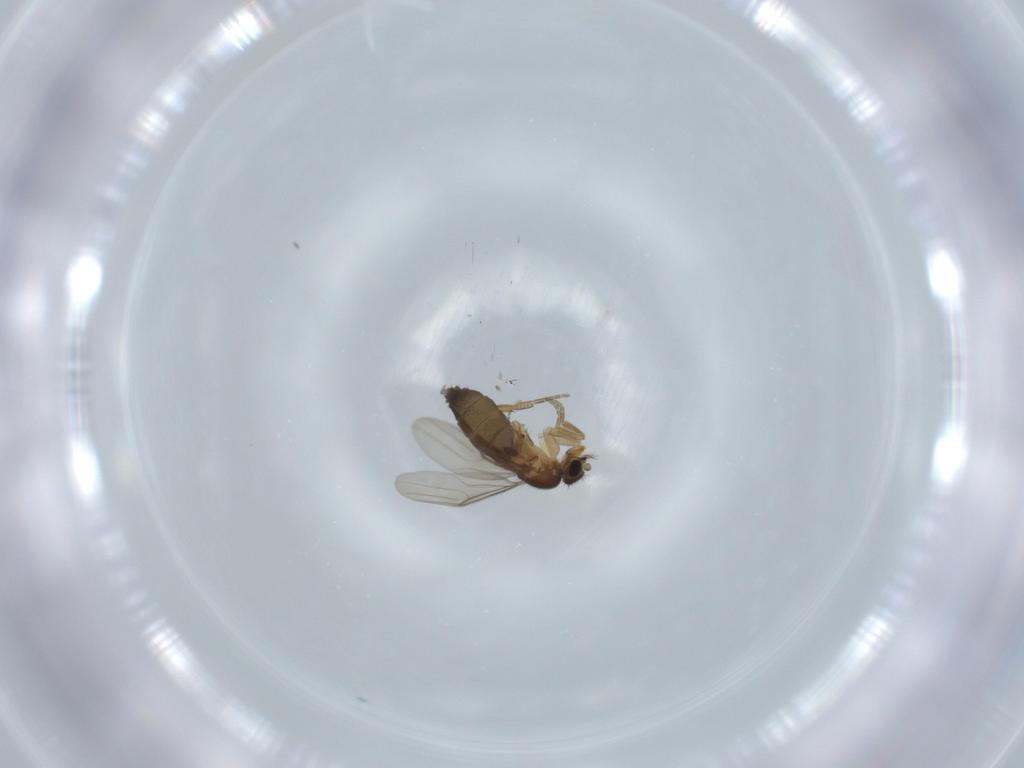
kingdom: Animalia
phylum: Arthropoda
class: Insecta
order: Diptera
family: Phoridae
